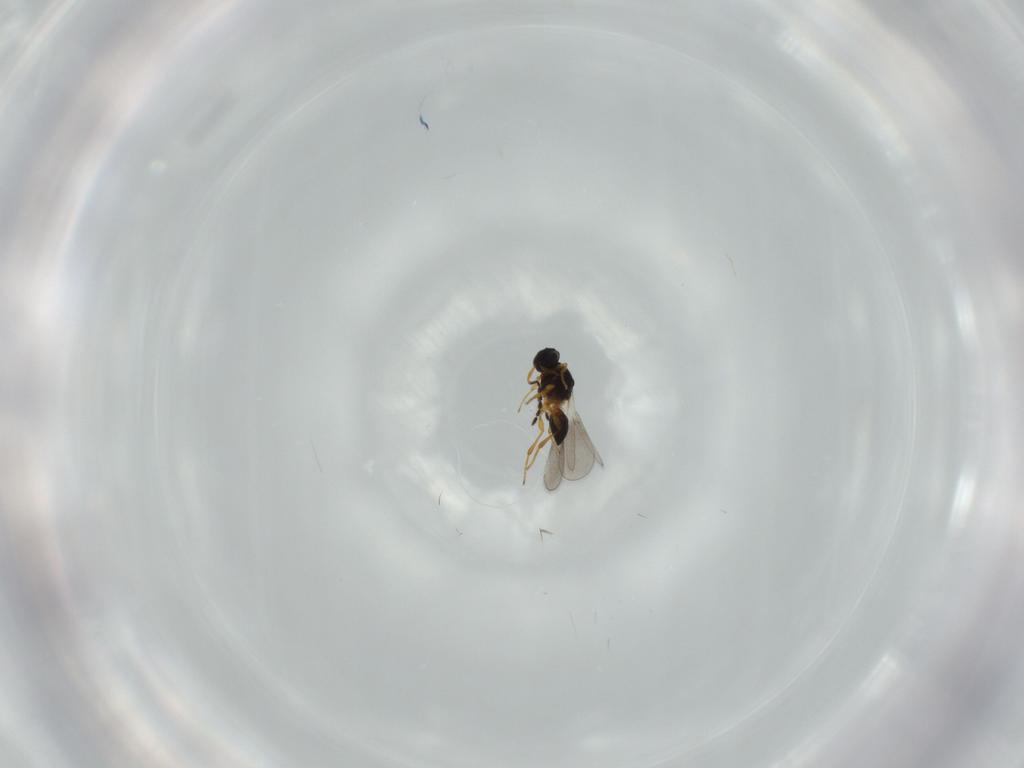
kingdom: Animalia
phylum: Arthropoda
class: Insecta
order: Hymenoptera
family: Platygastridae
